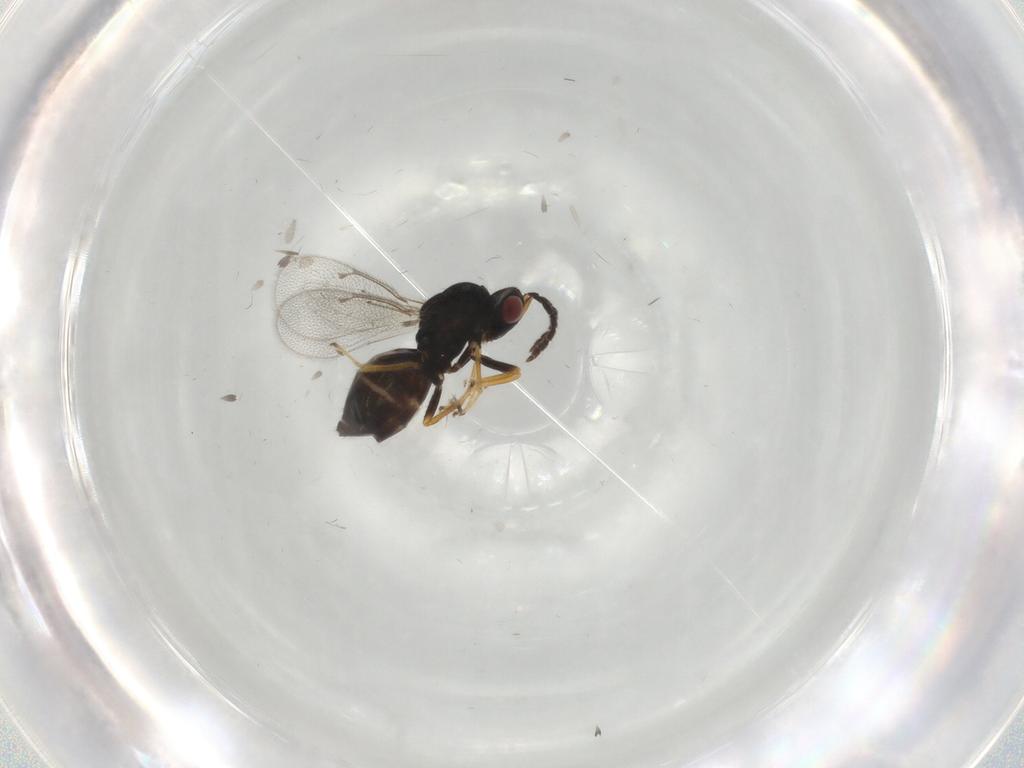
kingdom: Animalia
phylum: Arthropoda
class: Insecta
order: Hymenoptera
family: Eulophidae
